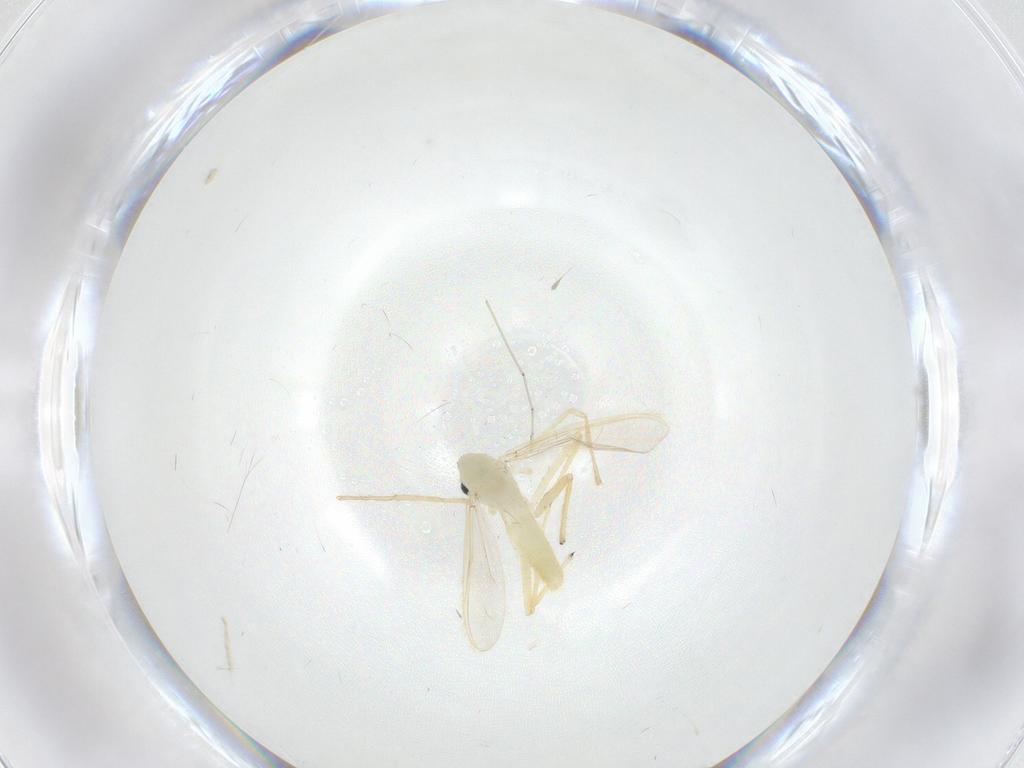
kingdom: Animalia
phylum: Arthropoda
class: Insecta
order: Diptera
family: Chironomidae
